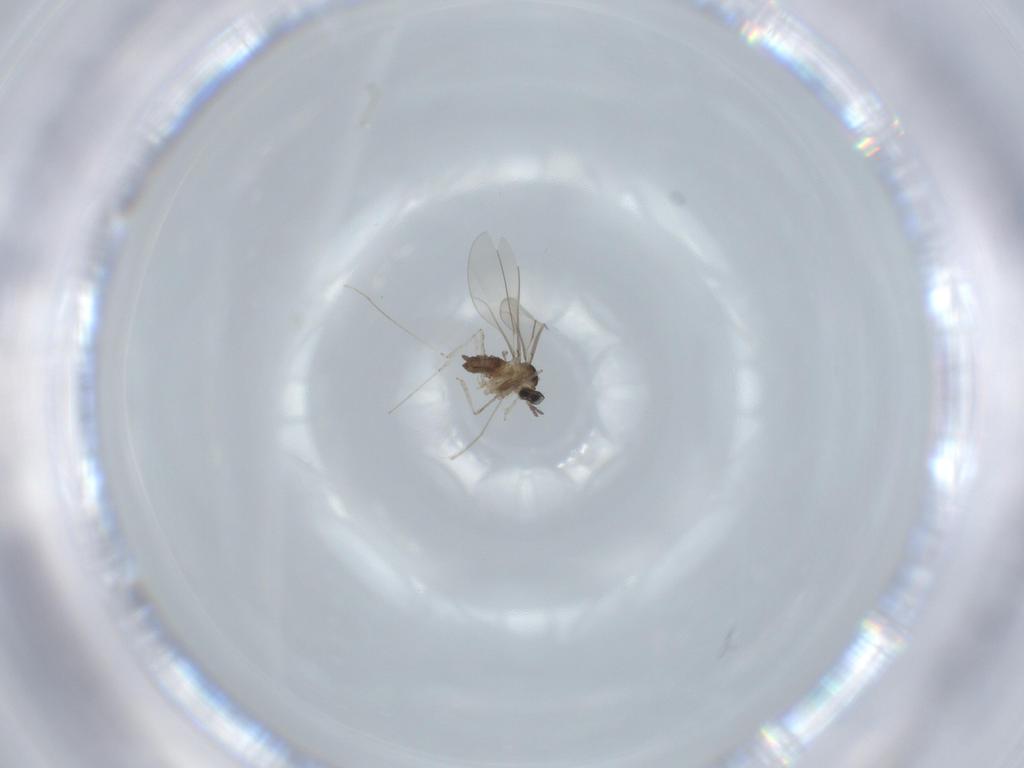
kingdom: Animalia
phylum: Arthropoda
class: Insecta
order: Diptera
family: Cecidomyiidae
